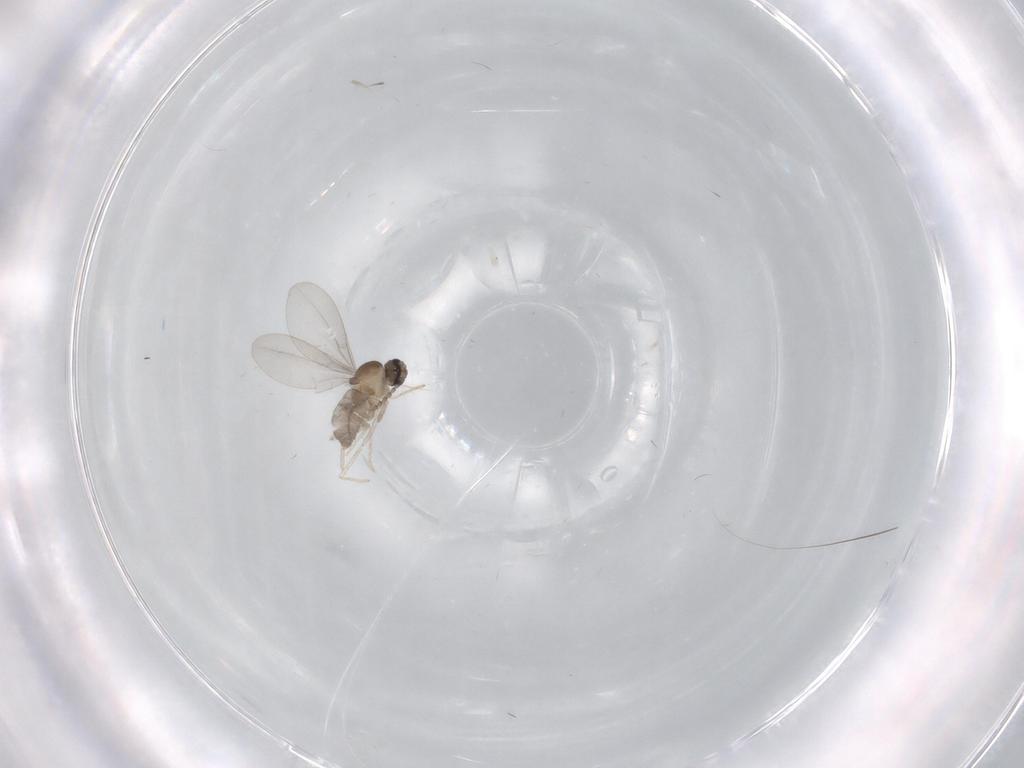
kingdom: Animalia
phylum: Arthropoda
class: Insecta
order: Diptera
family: Cecidomyiidae
